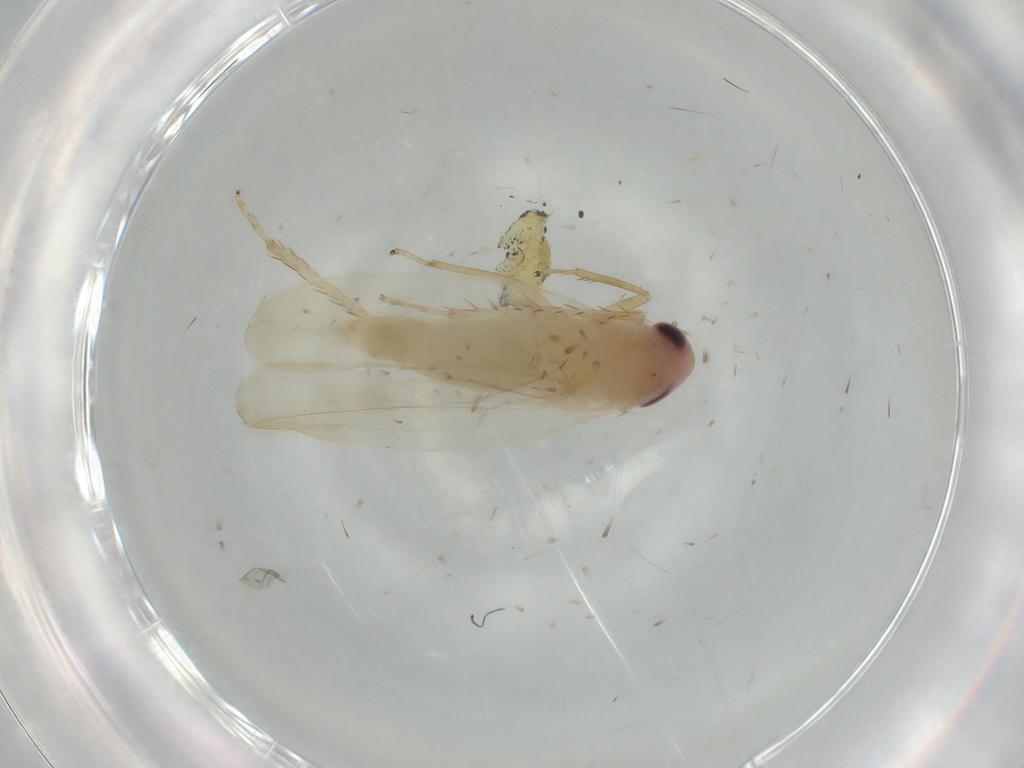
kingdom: Animalia
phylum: Arthropoda
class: Insecta
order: Hemiptera
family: Cicadellidae
